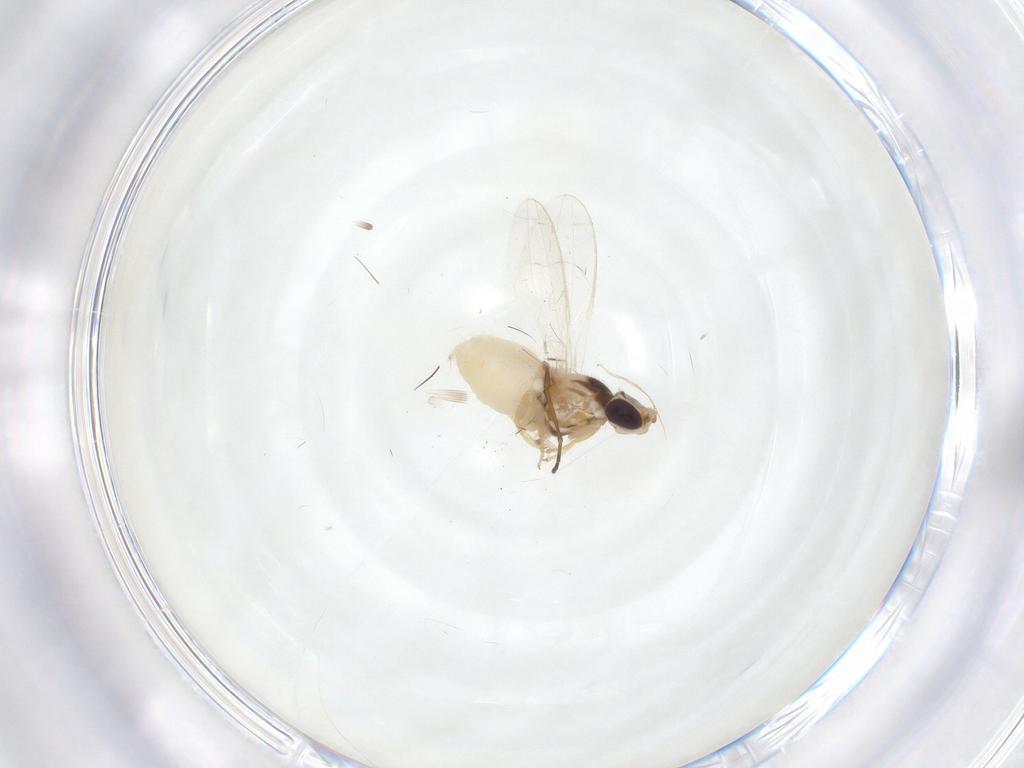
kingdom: Animalia
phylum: Arthropoda
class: Insecta
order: Diptera
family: Chloropidae
